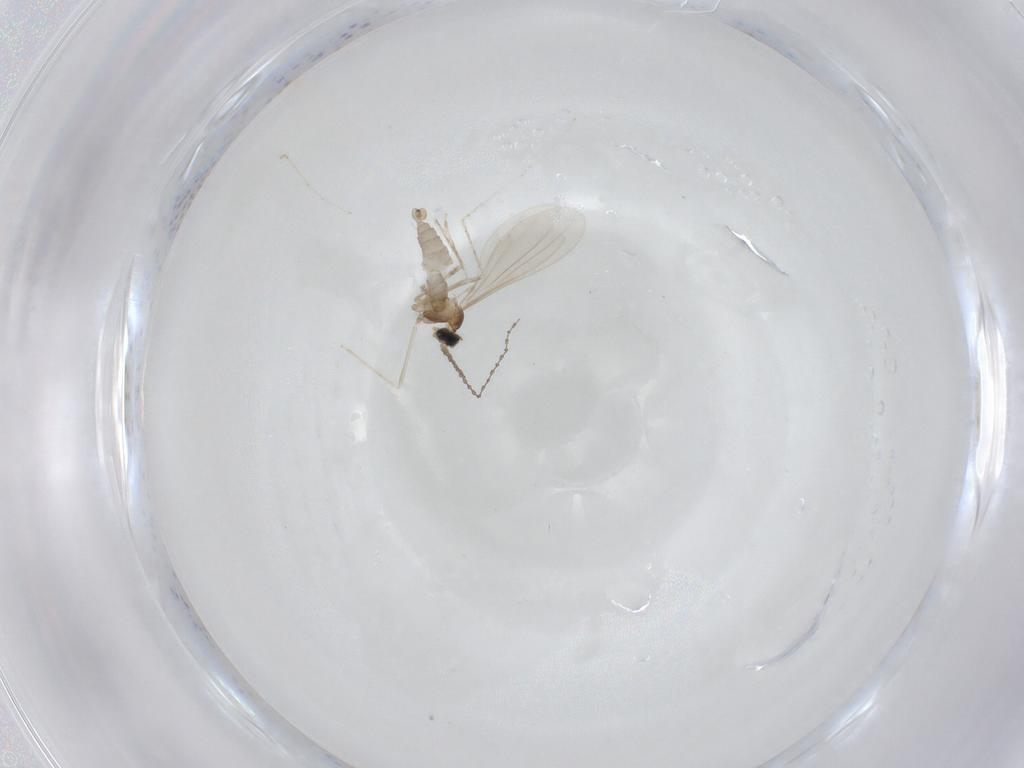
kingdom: Animalia
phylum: Arthropoda
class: Insecta
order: Diptera
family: Cecidomyiidae
